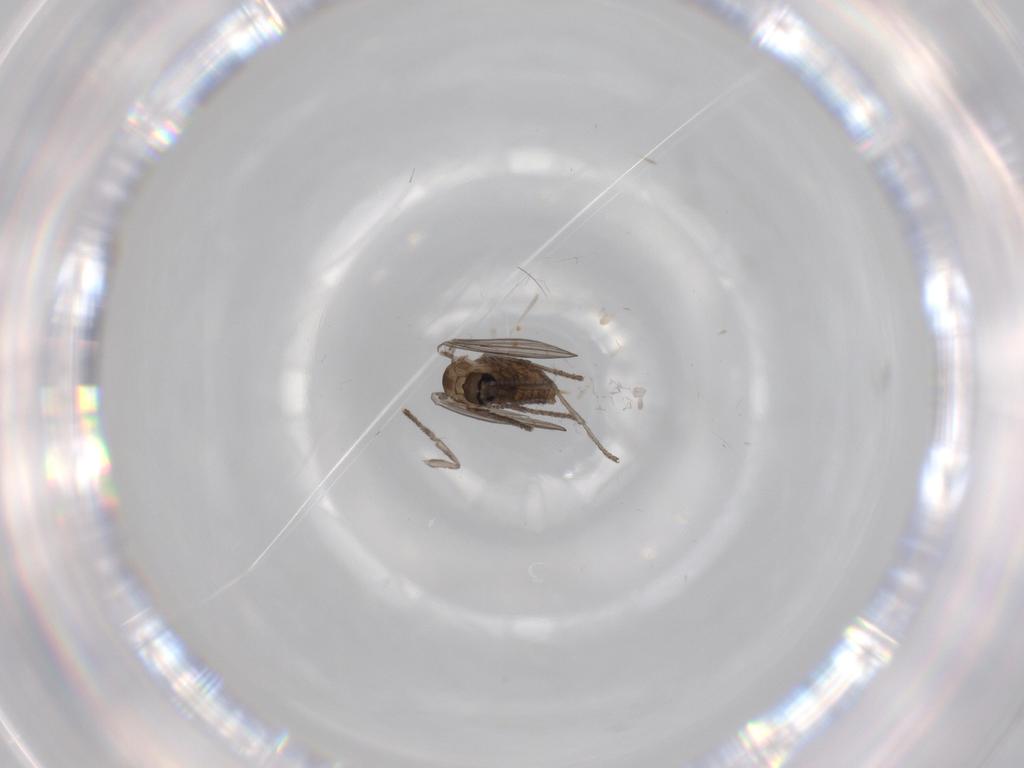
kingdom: Animalia
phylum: Arthropoda
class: Insecta
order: Diptera
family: Psychodidae
